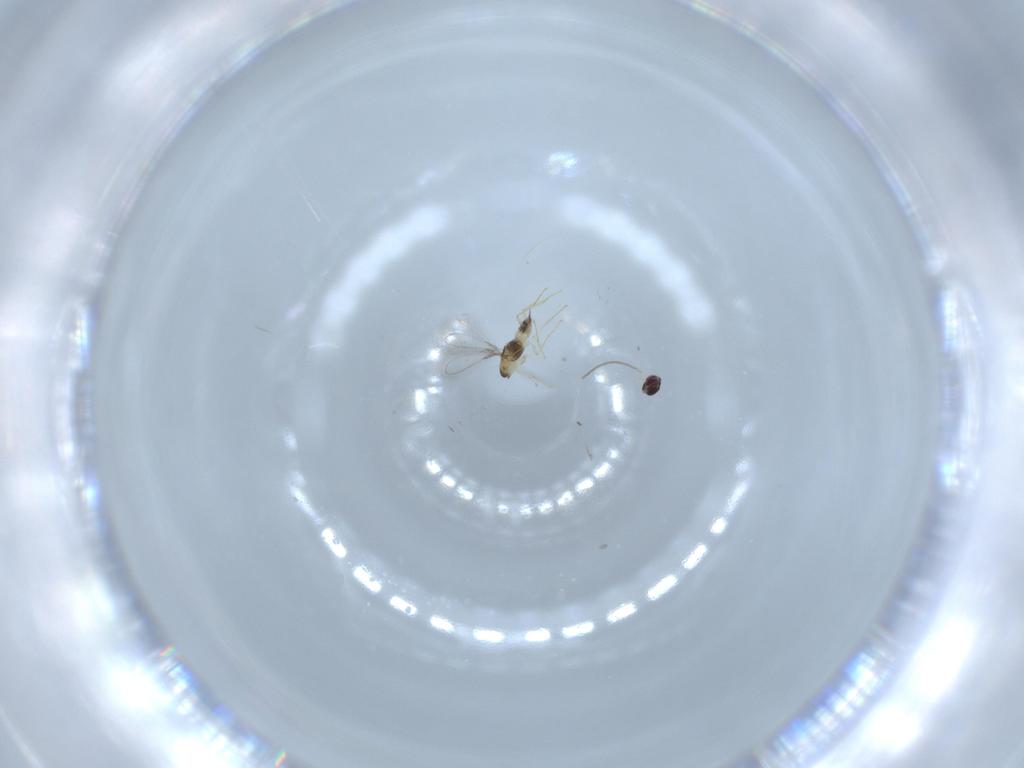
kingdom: Animalia
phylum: Arthropoda
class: Insecta
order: Hymenoptera
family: Mymaridae
